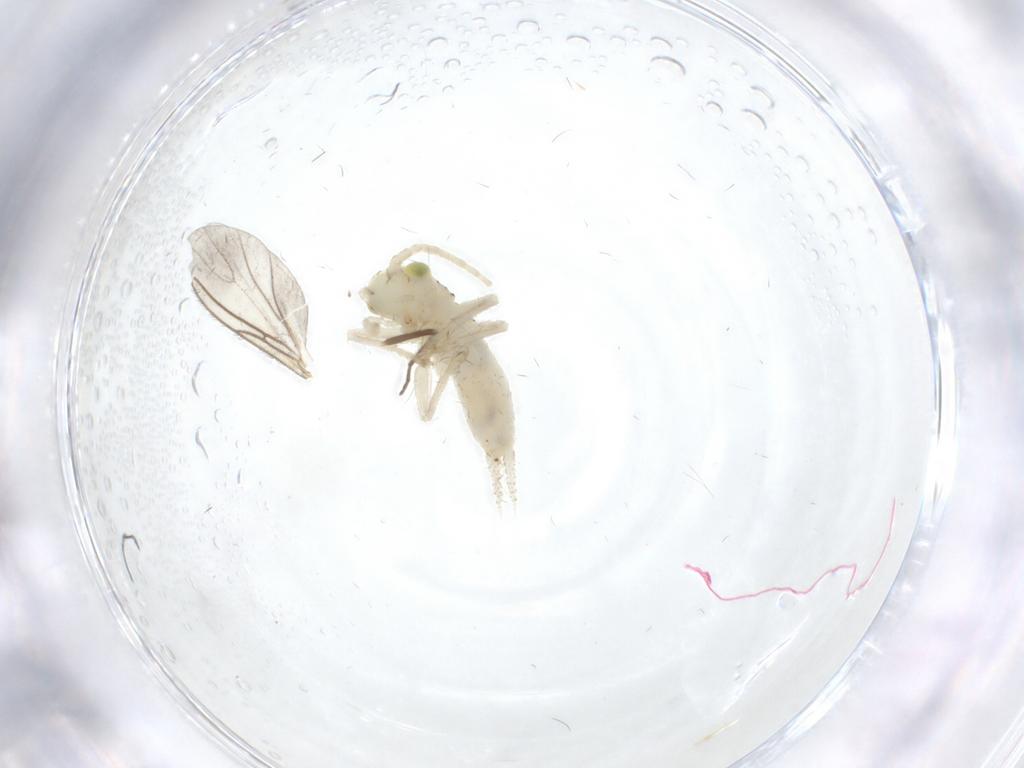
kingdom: Animalia
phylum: Arthropoda
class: Insecta
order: Orthoptera
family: Trigonidiidae
